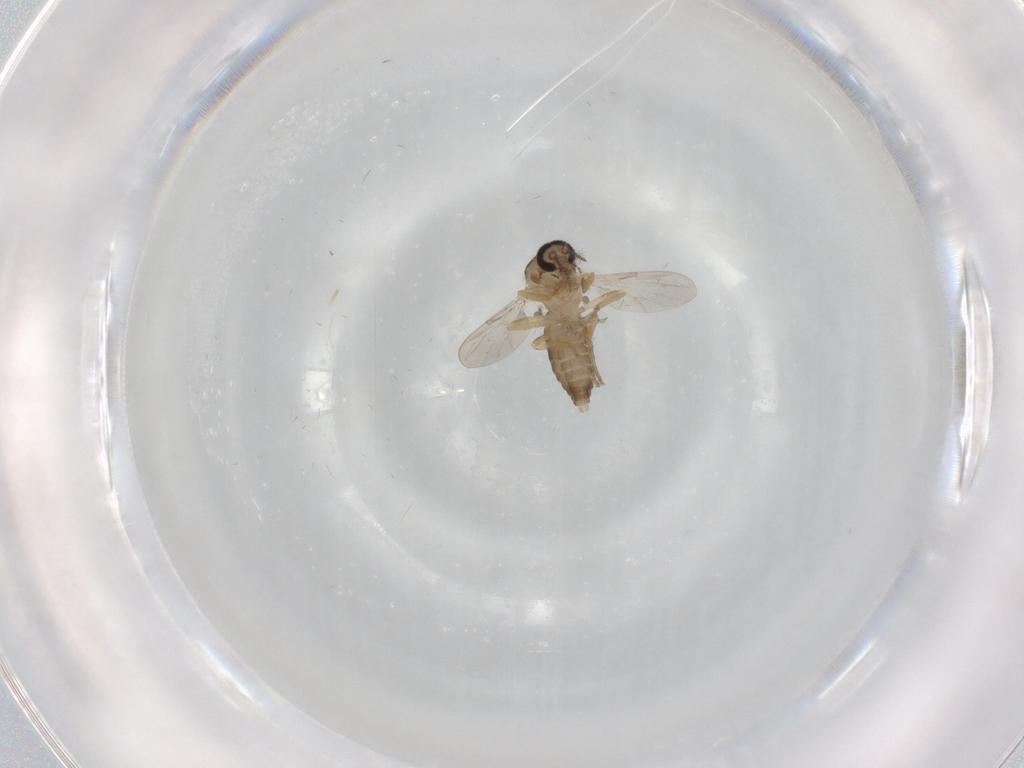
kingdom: Animalia
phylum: Arthropoda
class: Insecta
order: Diptera
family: Ceratopogonidae
